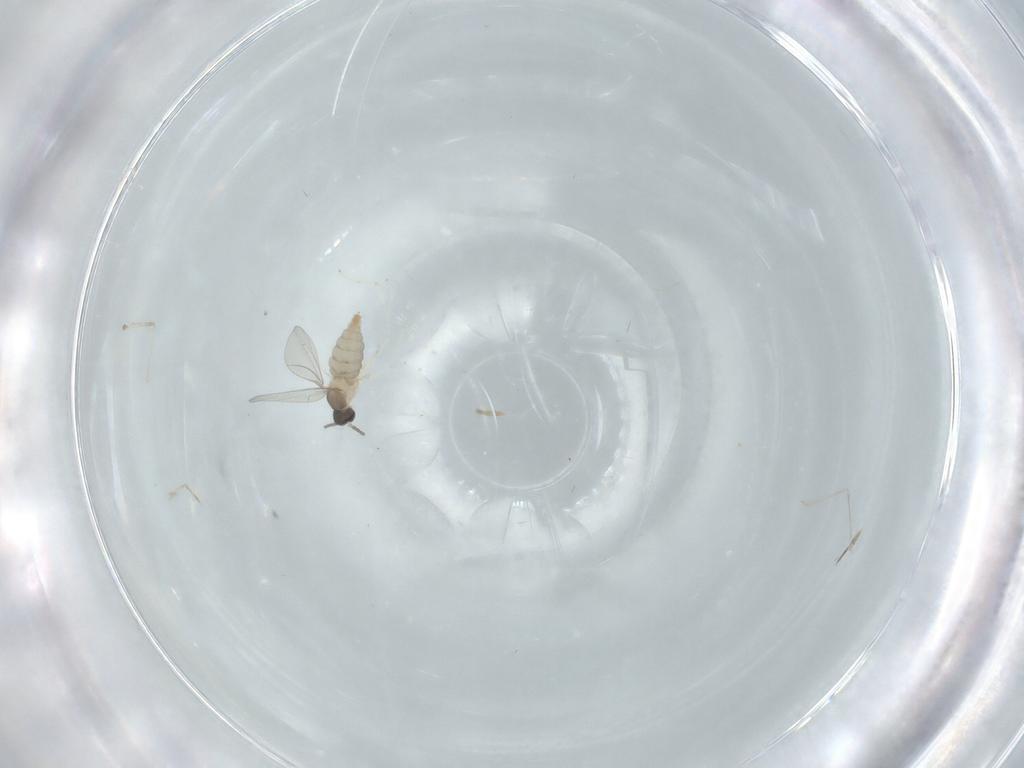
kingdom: Animalia
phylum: Arthropoda
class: Insecta
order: Diptera
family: Cecidomyiidae
